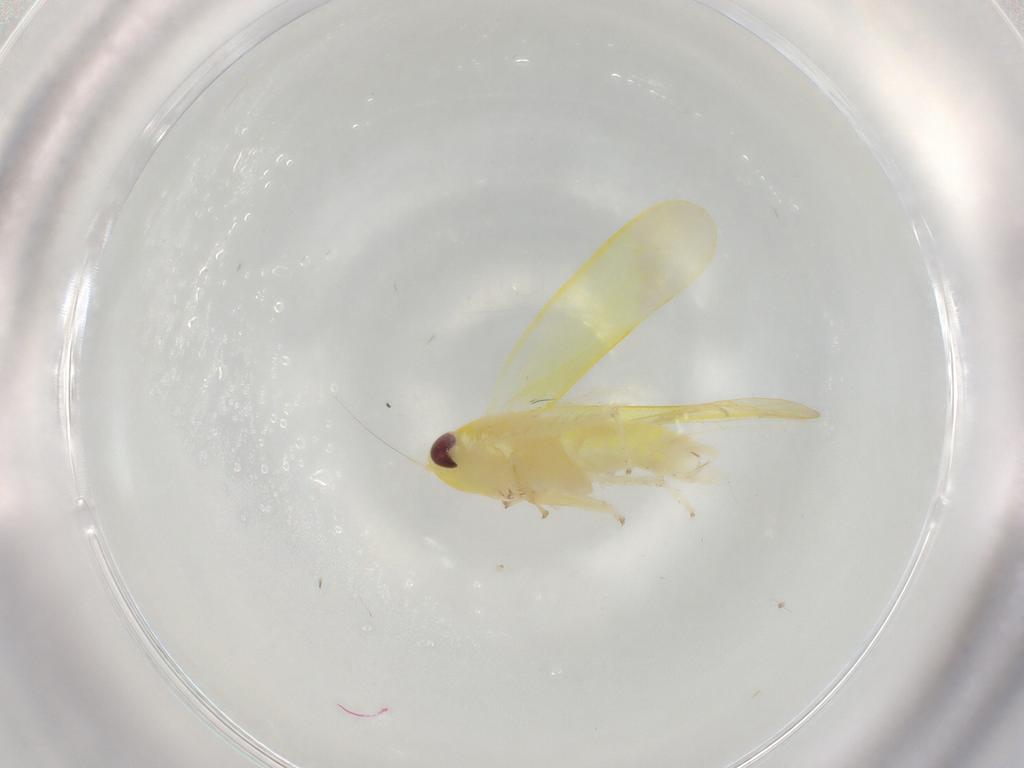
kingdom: Animalia
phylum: Arthropoda
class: Insecta
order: Hemiptera
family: Cicadellidae
